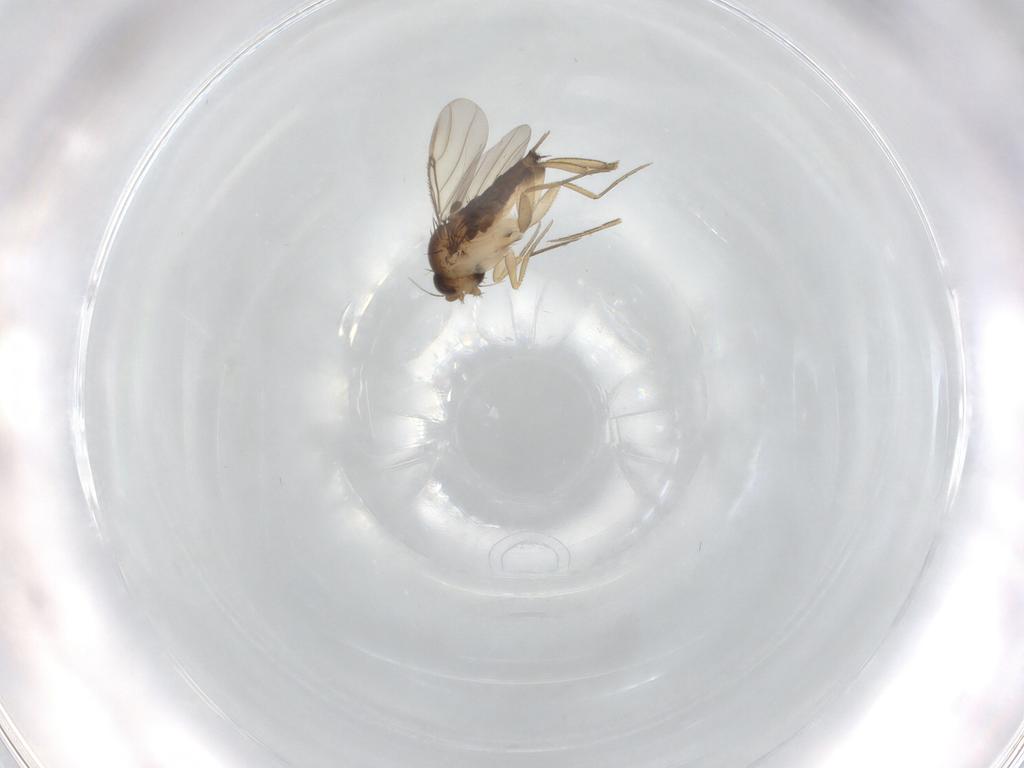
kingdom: Animalia
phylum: Arthropoda
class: Insecta
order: Diptera
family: Phoridae
